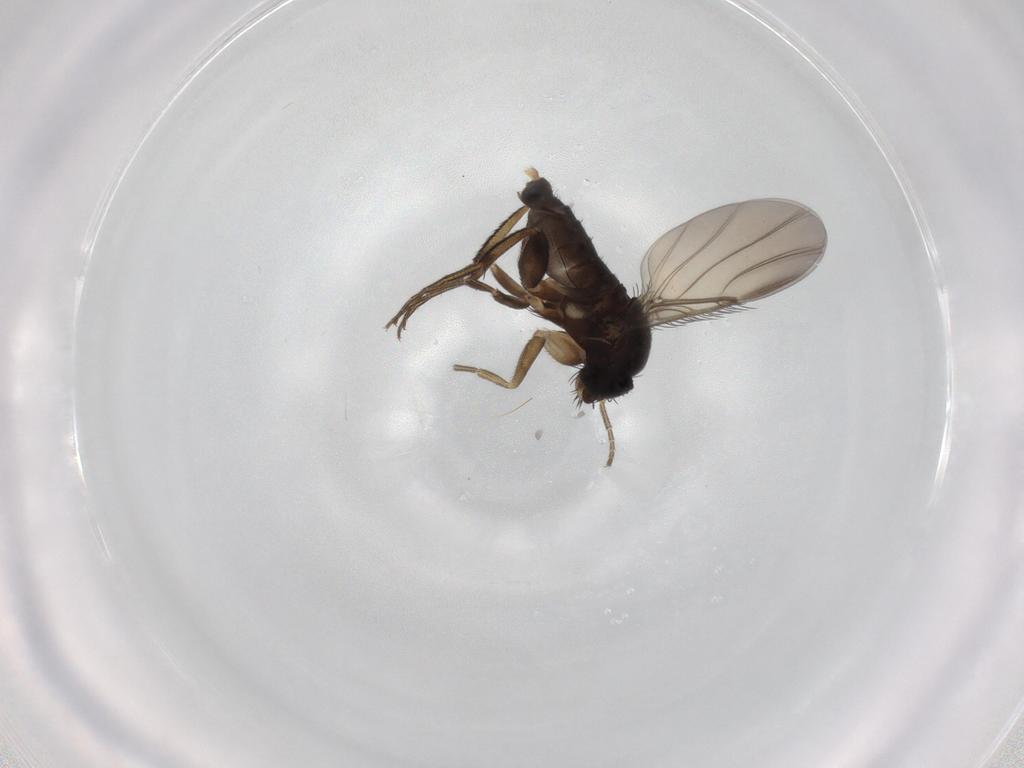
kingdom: Animalia
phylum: Arthropoda
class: Insecta
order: Diptera
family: Phoridae
